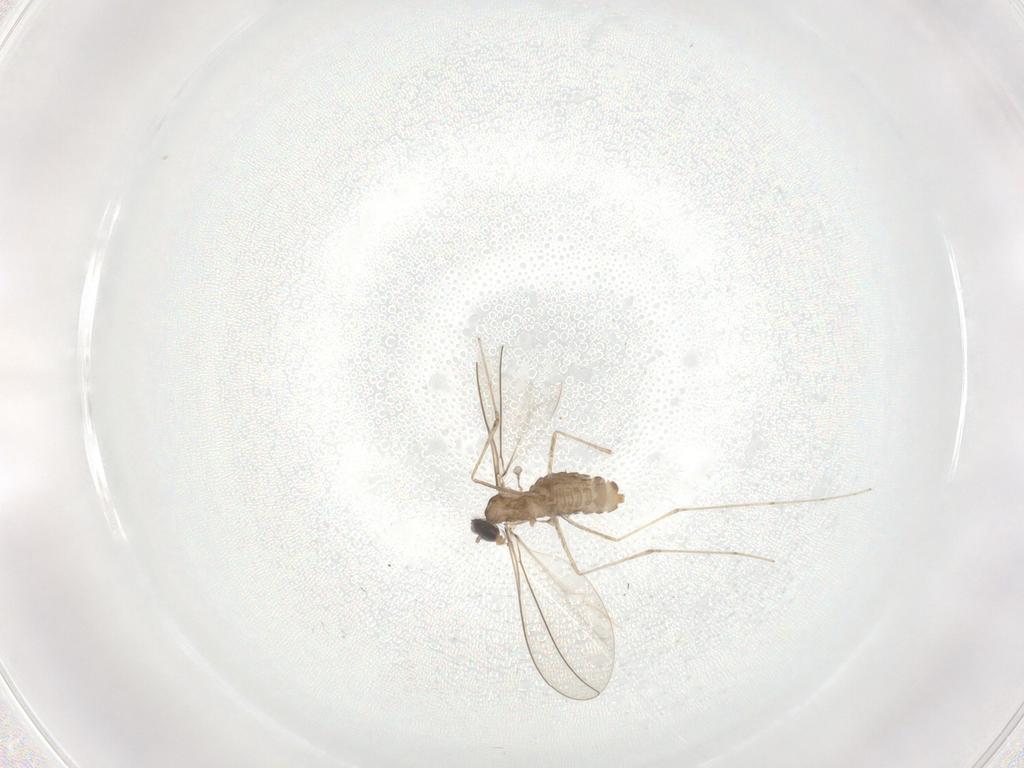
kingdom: Animalia
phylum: Arthropoda
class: Insecta
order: Diptera
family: Cecidomyiidae
